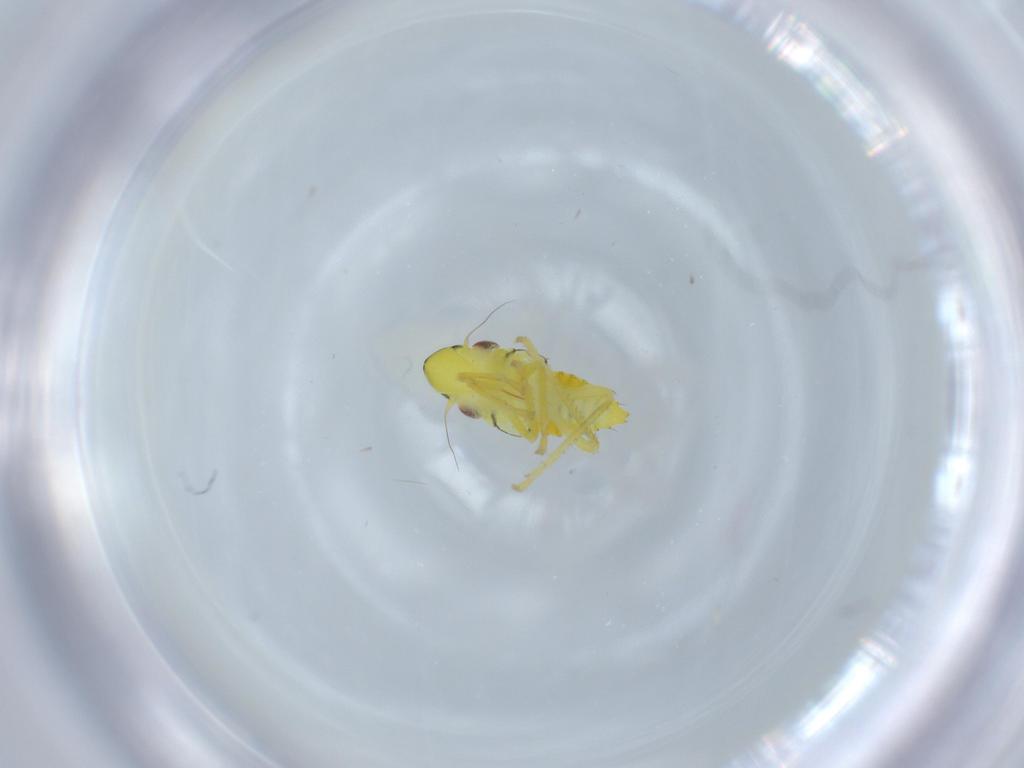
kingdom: Animalia
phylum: Arthropoda
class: Insecta
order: Hemiptera
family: Cicadellidae
